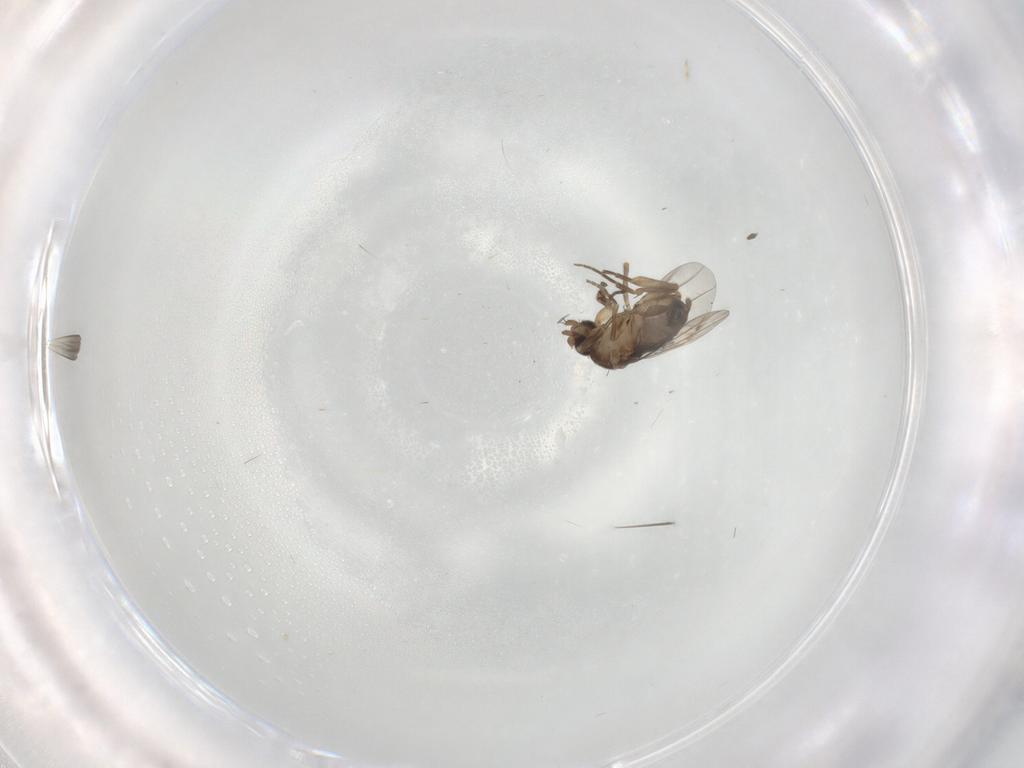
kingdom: Animalia
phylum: Arthropoda
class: Insecta
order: Diptera
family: Phoridae
